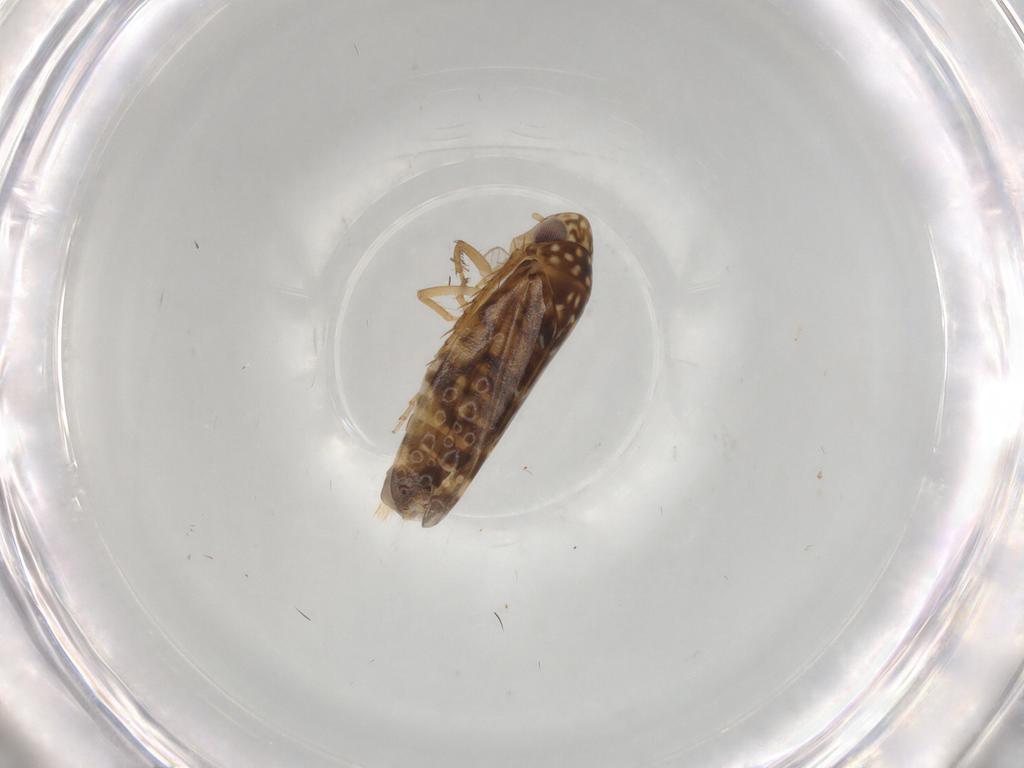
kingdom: Animalia
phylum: Arthropoda
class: Insecta
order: Hemiptera
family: Cicadellidae
